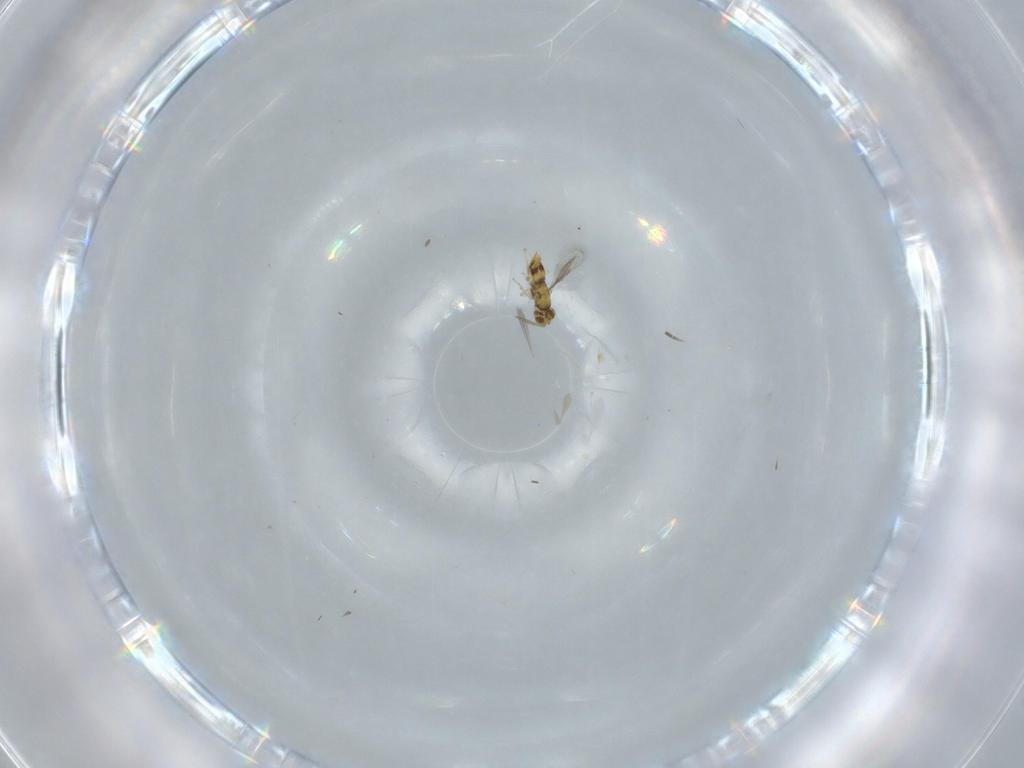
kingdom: Animalia
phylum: Arthropoda
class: Insecta
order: Hymenoptera
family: Aphelinidae
